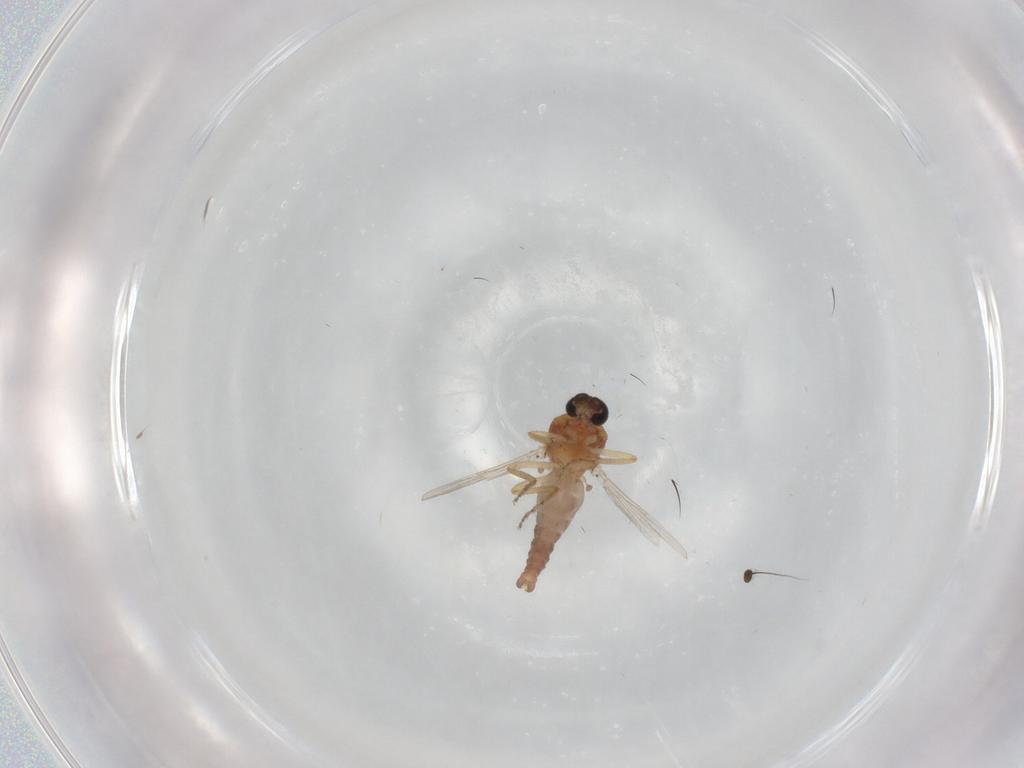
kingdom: Animalia
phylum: Arthropoda
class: Insecta
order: Diptera
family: Ceratopogonidae
